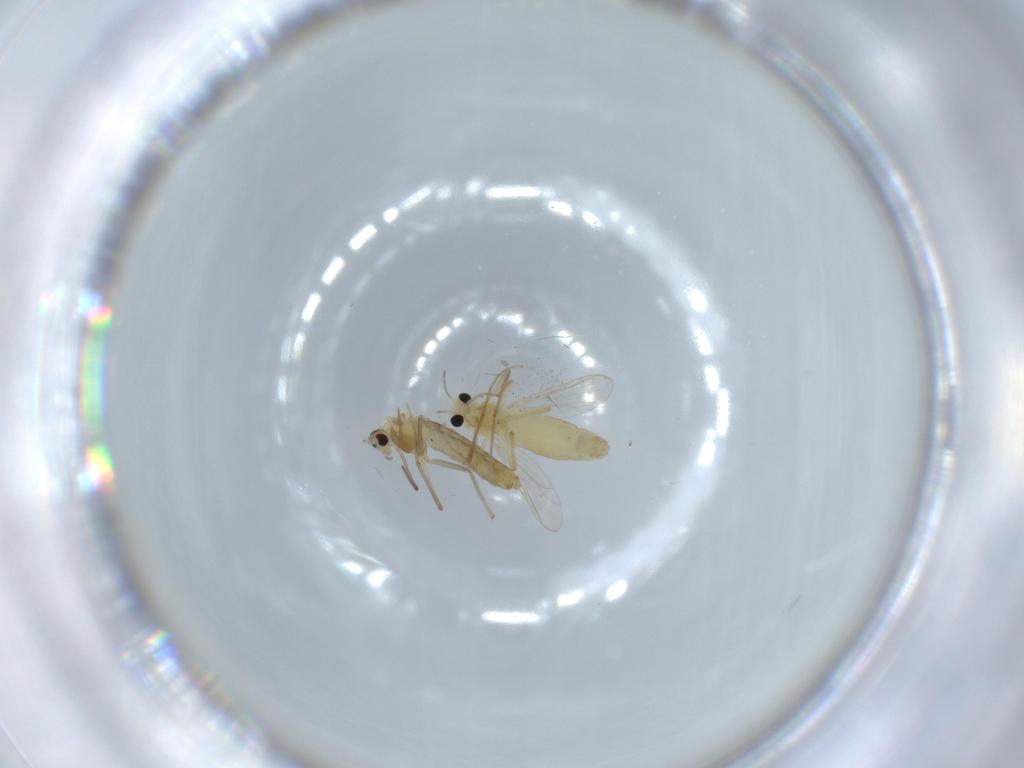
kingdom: Animalia
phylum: Arthropoda
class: Insecta
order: Diptera
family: Chironomidae
